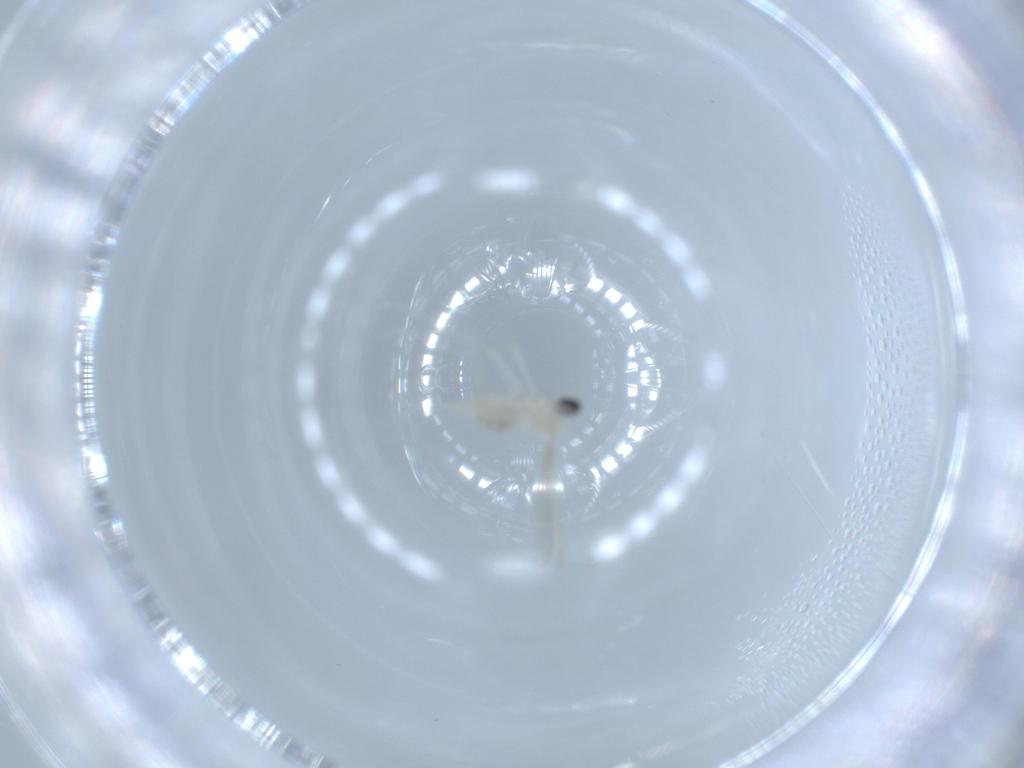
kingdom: Animalia
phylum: Arthropoda
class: Insecta
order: Diptera
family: Cecidomyiidae
